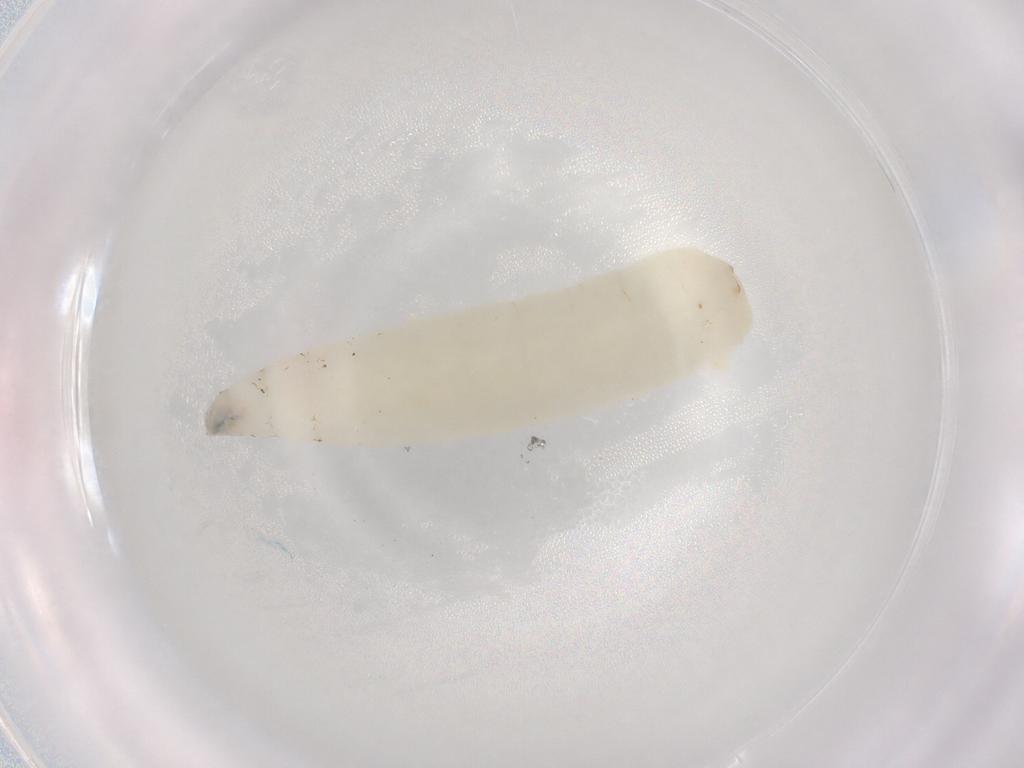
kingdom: Animalia
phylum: Arthropoda
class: Insecta
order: Diptera
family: Anthomyiidae
